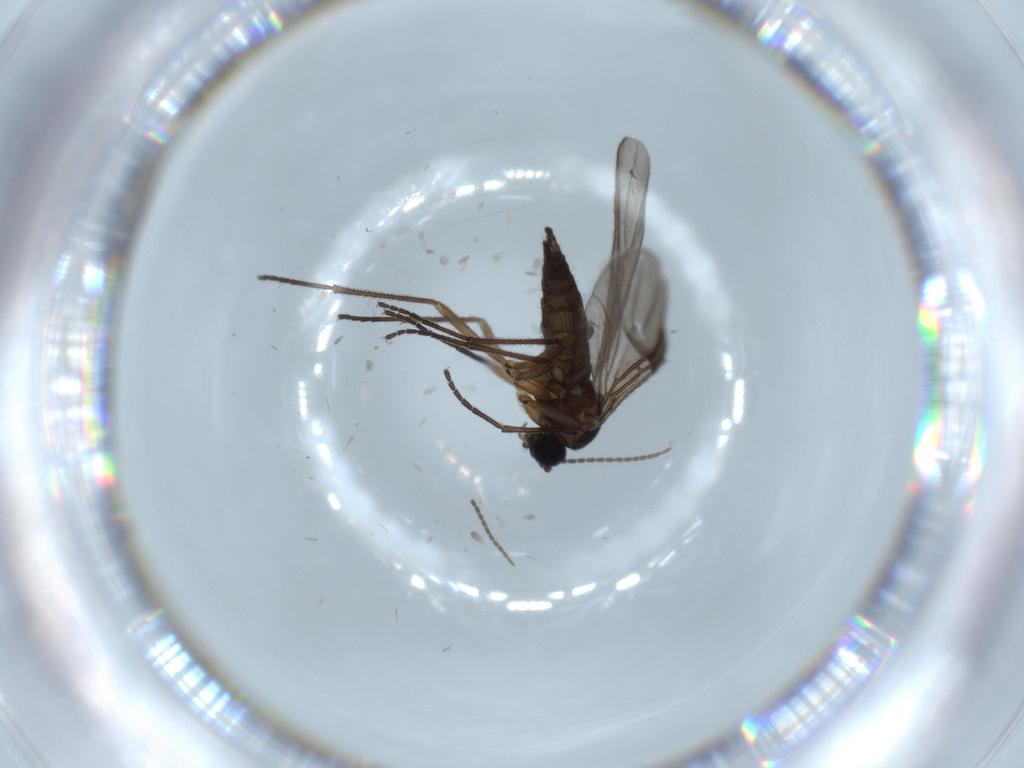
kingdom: Animalia
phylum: Arthropoda
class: Insecta
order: Diptera
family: Sciaridae
